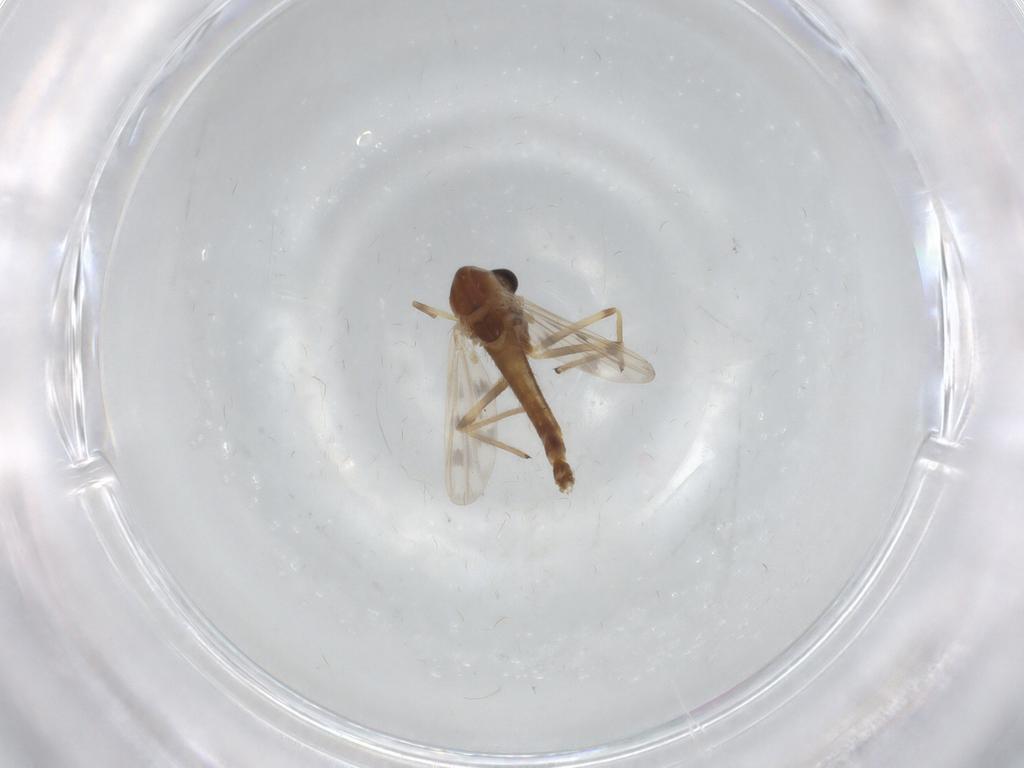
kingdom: Animalia
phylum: Arthropoda
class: Insecta
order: Diptera
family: Chironomidae
